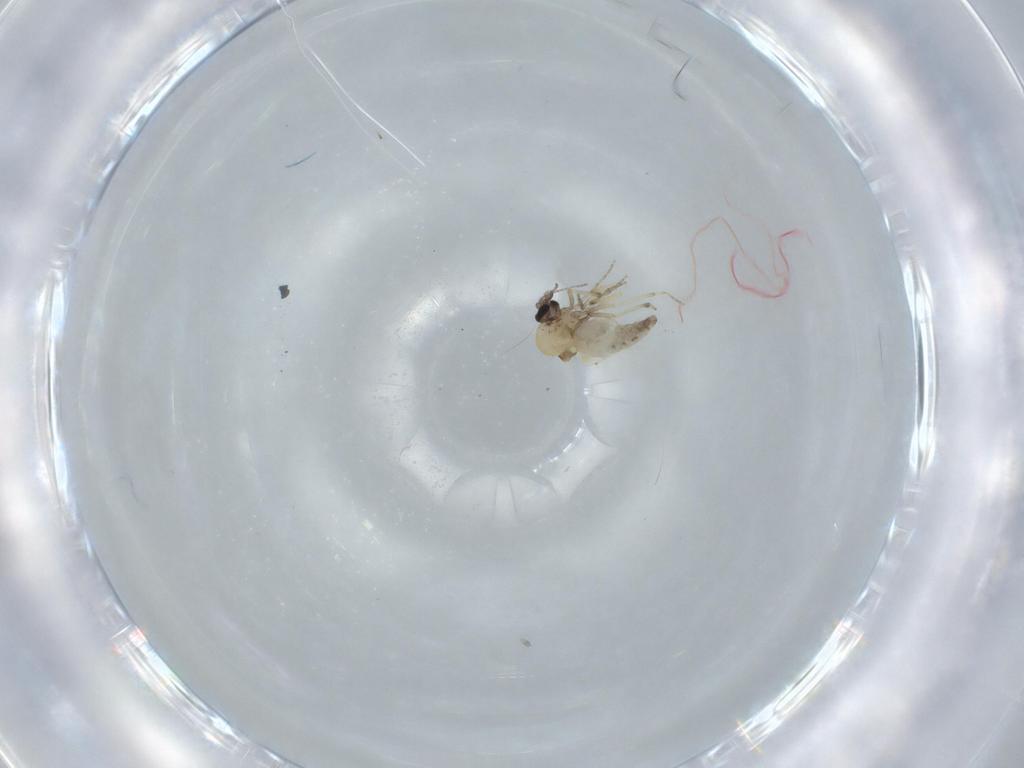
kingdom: Animalia
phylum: Arthropoda
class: Insecta
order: Diptera
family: Ceratopogonidae
